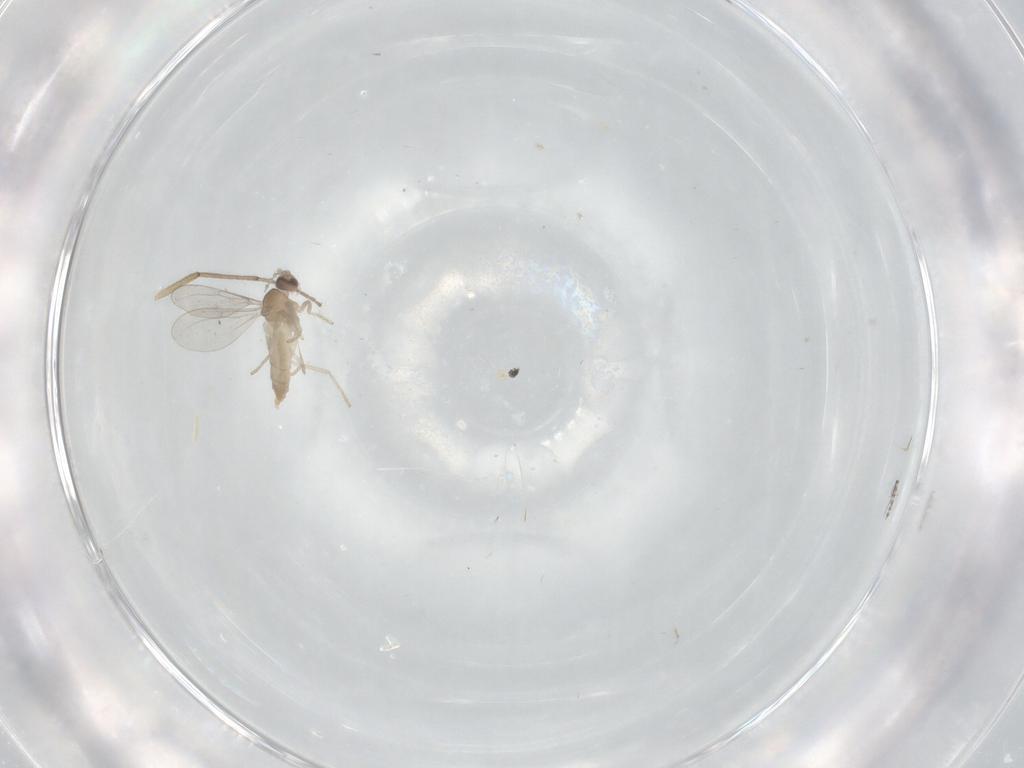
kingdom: Animalia
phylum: Arthropoda
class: Insecta
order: Diptera
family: Chironomidae
